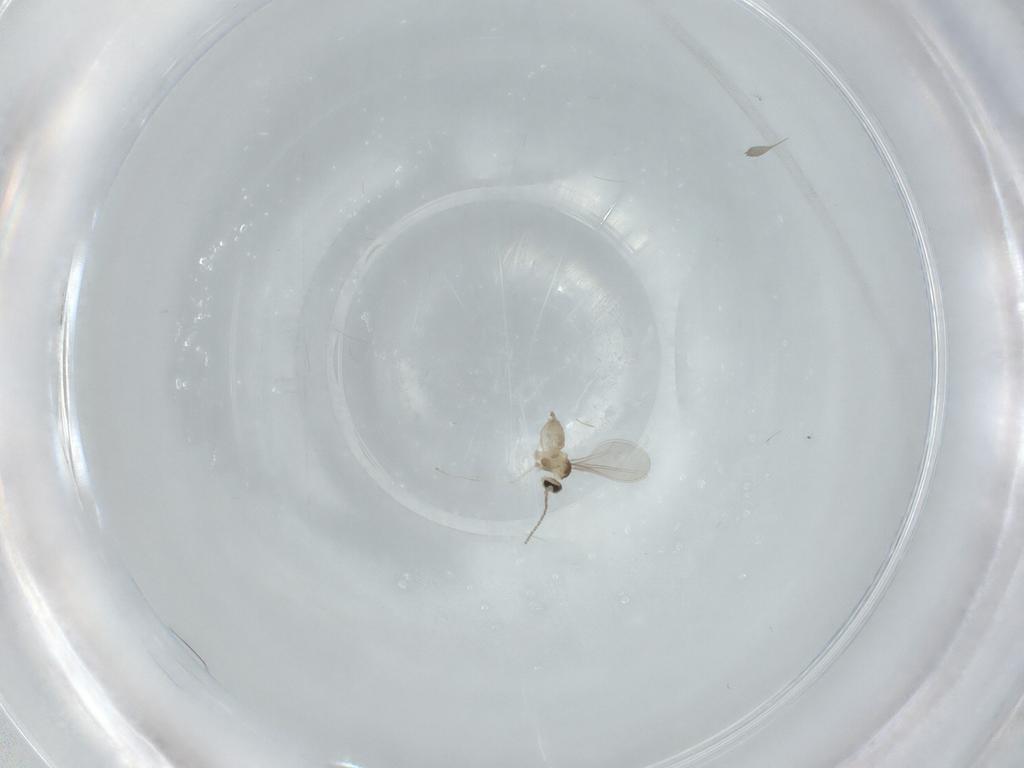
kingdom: Animalia
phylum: Arthropoda
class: Insecta
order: Diptera
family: Cecidomyiidae
